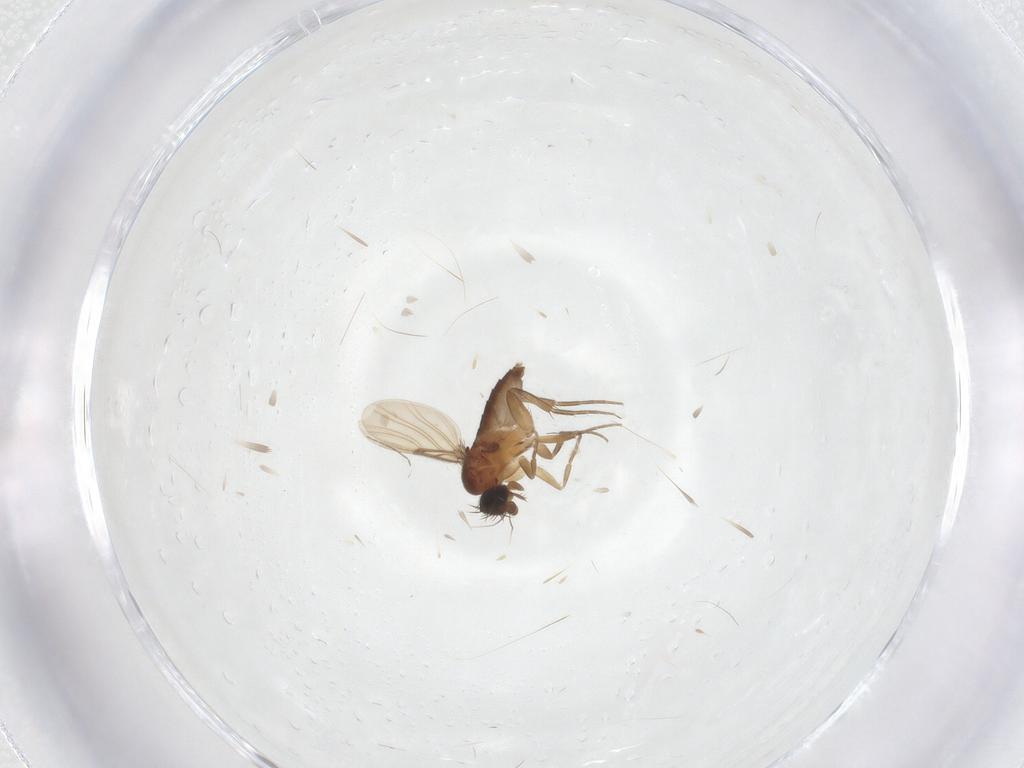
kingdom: Animalia
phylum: Arthropoda
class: Insecta
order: Diptera
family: Phoridae
